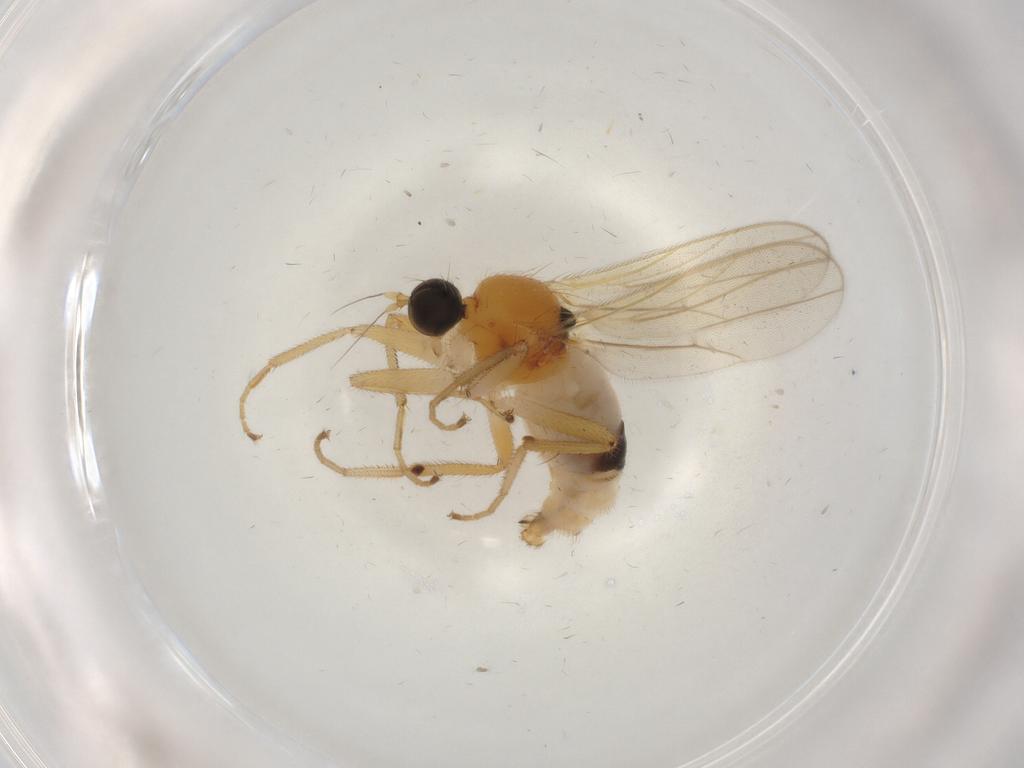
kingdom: Animalia
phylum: Arthropoda
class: Insecta
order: Diptera
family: Hybotidae
